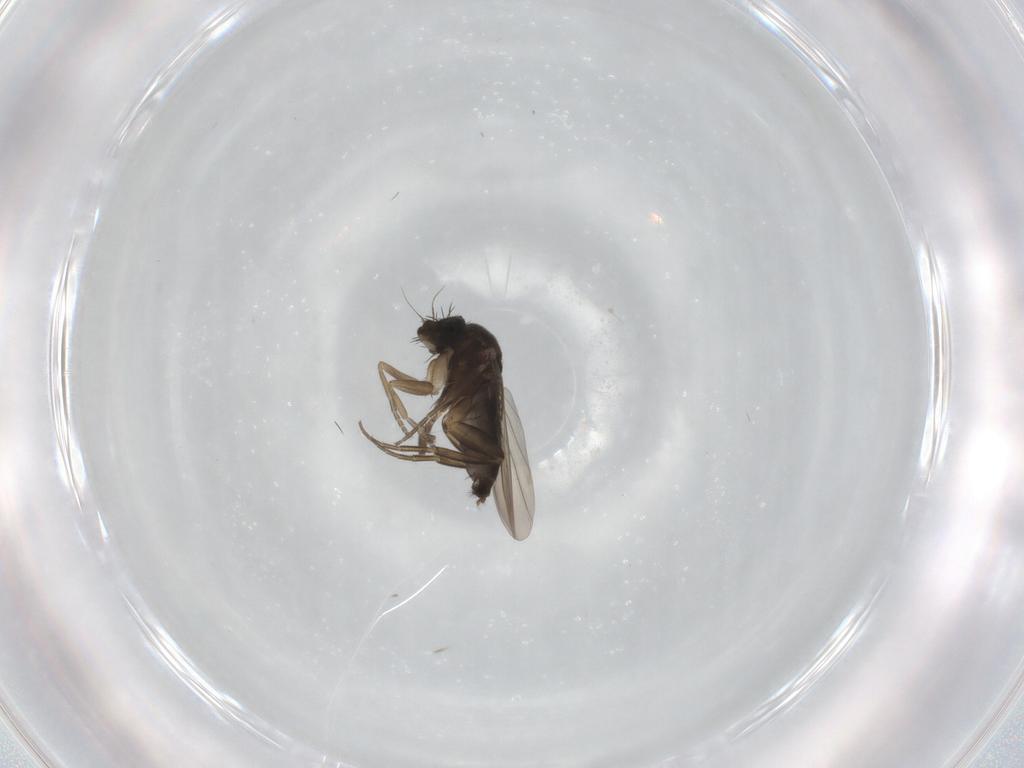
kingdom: Animalia
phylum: Arthropoda
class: Insecta
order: Diptera
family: Phoridae
